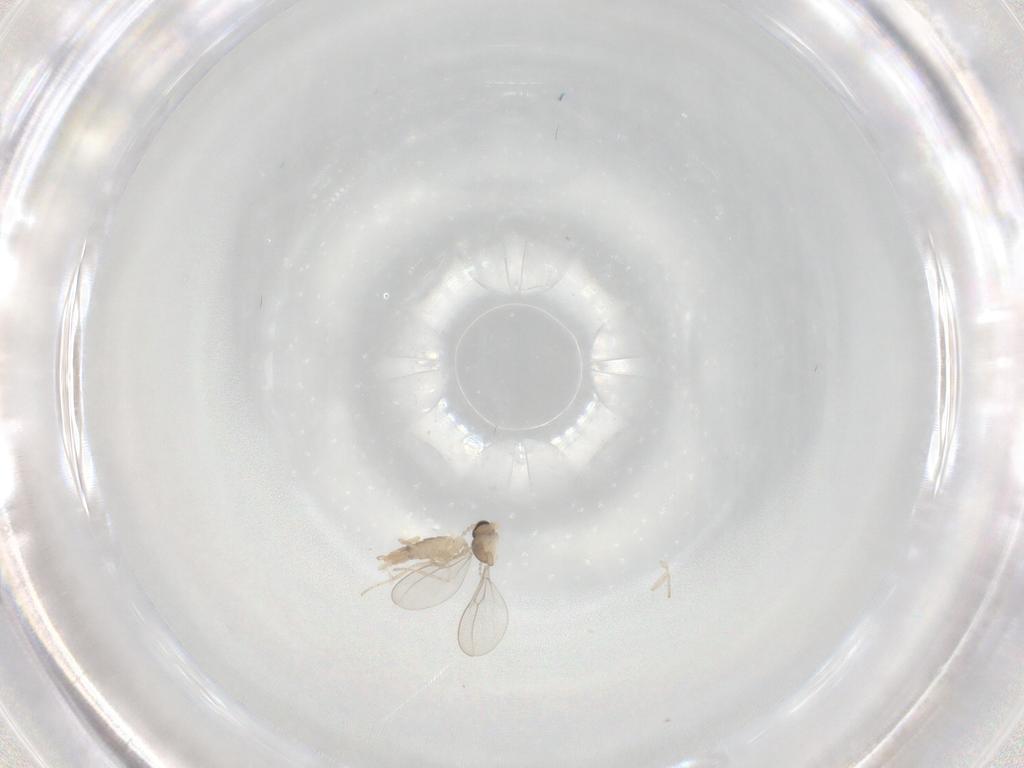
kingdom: Animalia
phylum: Arthropoda
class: Insecta
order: Diptera
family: Cecidomyiidae
